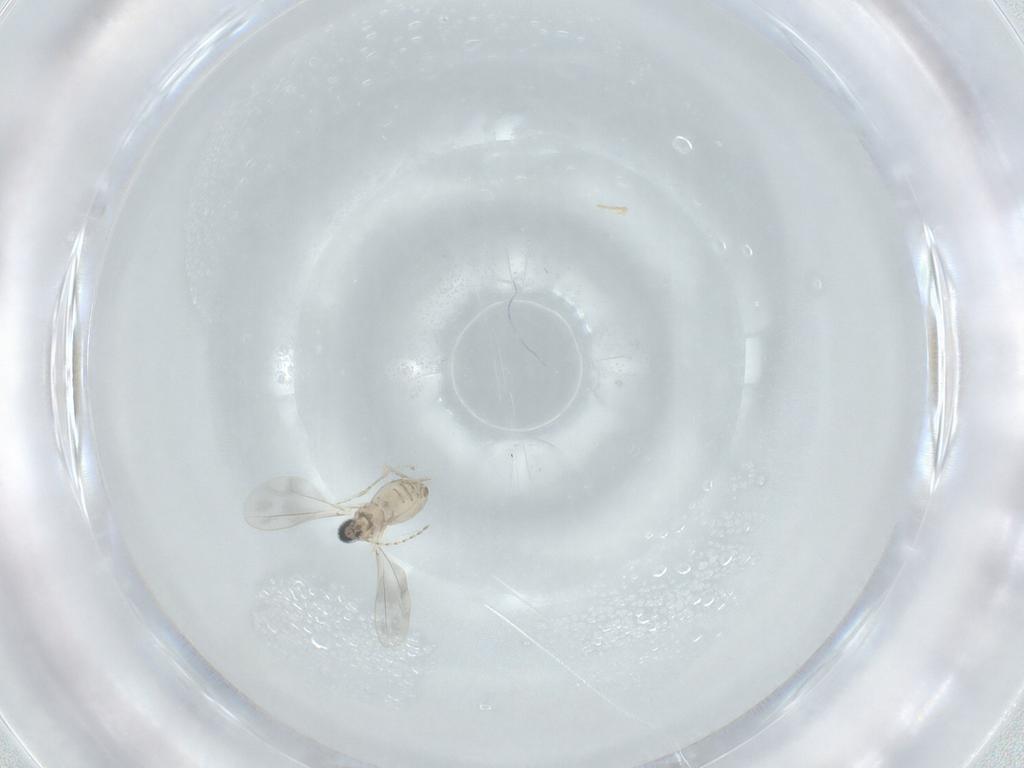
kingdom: Animalia
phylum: Arthropoda
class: Insecta
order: Diptera
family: Cecidomyiidae
